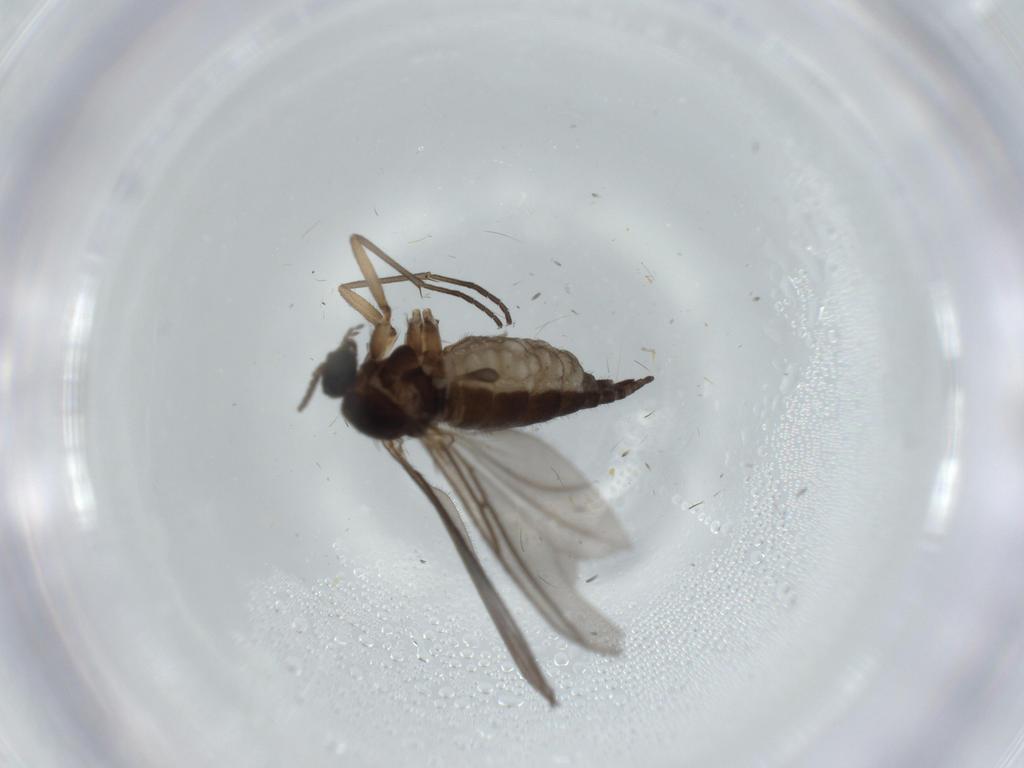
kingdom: Animalia
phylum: Arthropoda
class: Insecta
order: Diptera
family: Sciaridae
